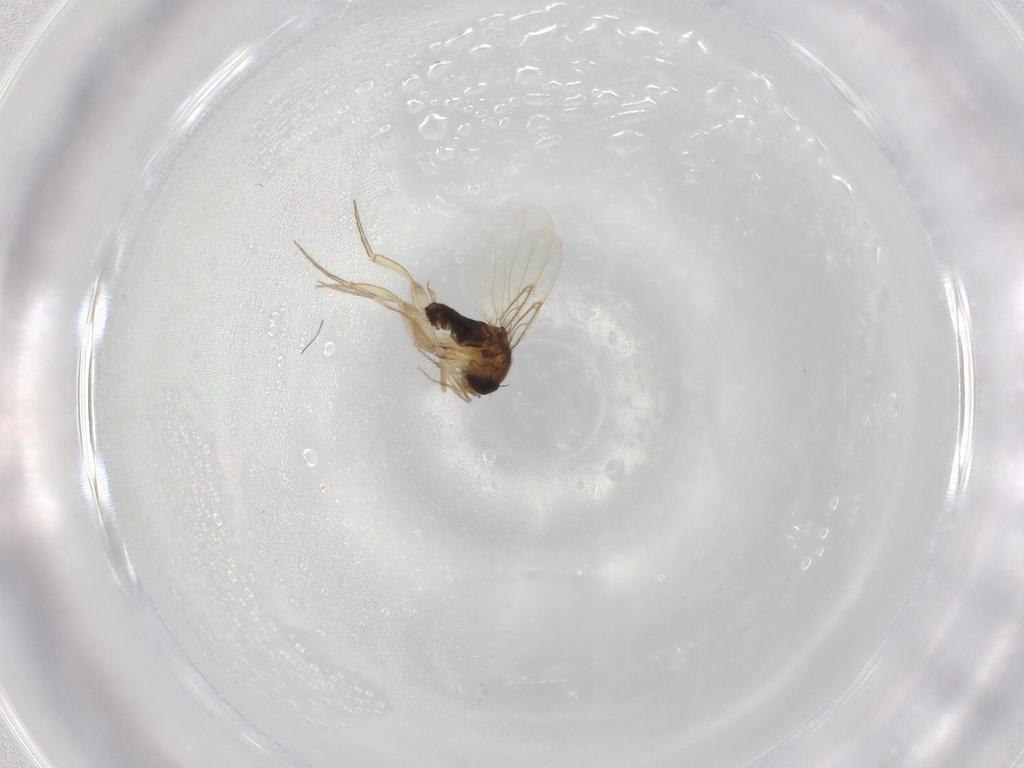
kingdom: Animalia
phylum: Arthropoda
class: Insecta
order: Diptera
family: Phoridae
